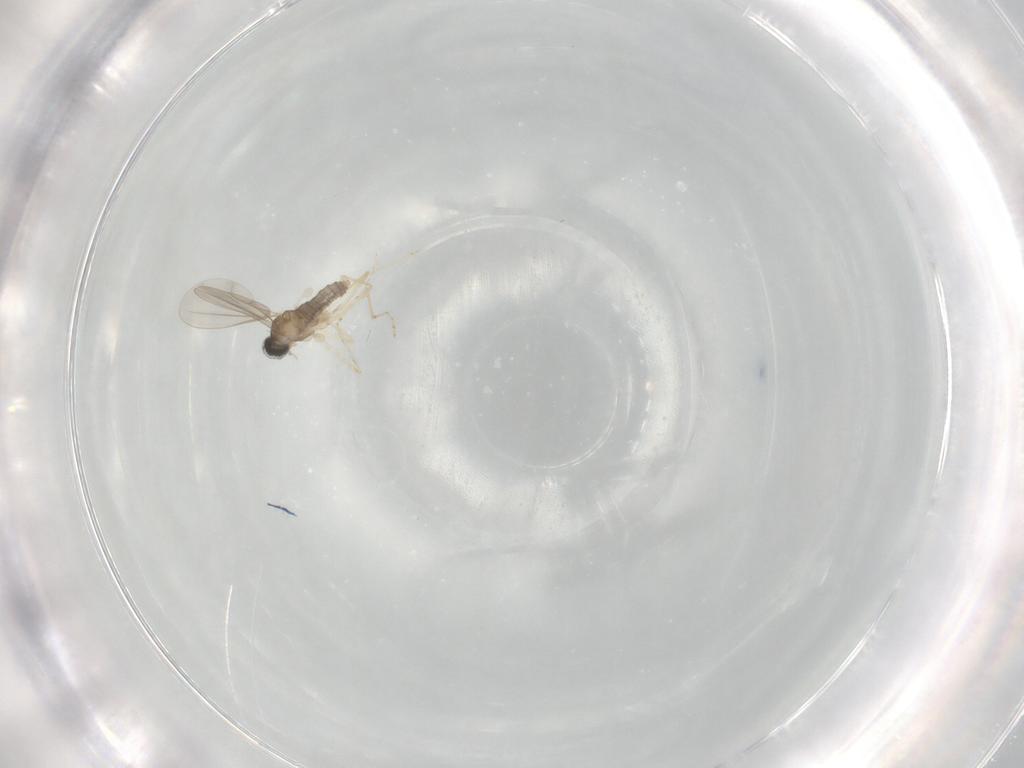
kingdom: Animalia
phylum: Arthropoda
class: Insecta
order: Diptera
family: Cecidomyiidae
